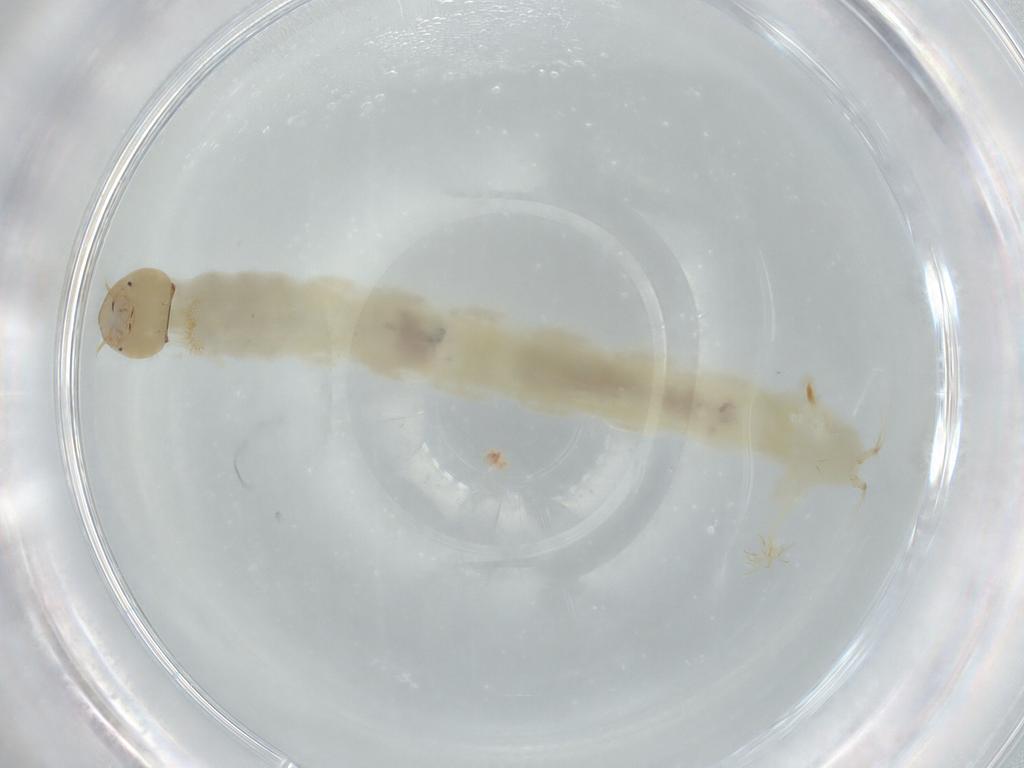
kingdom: Animalia
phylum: Arthropoda
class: Insecta
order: Diptera
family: Chironomidae
